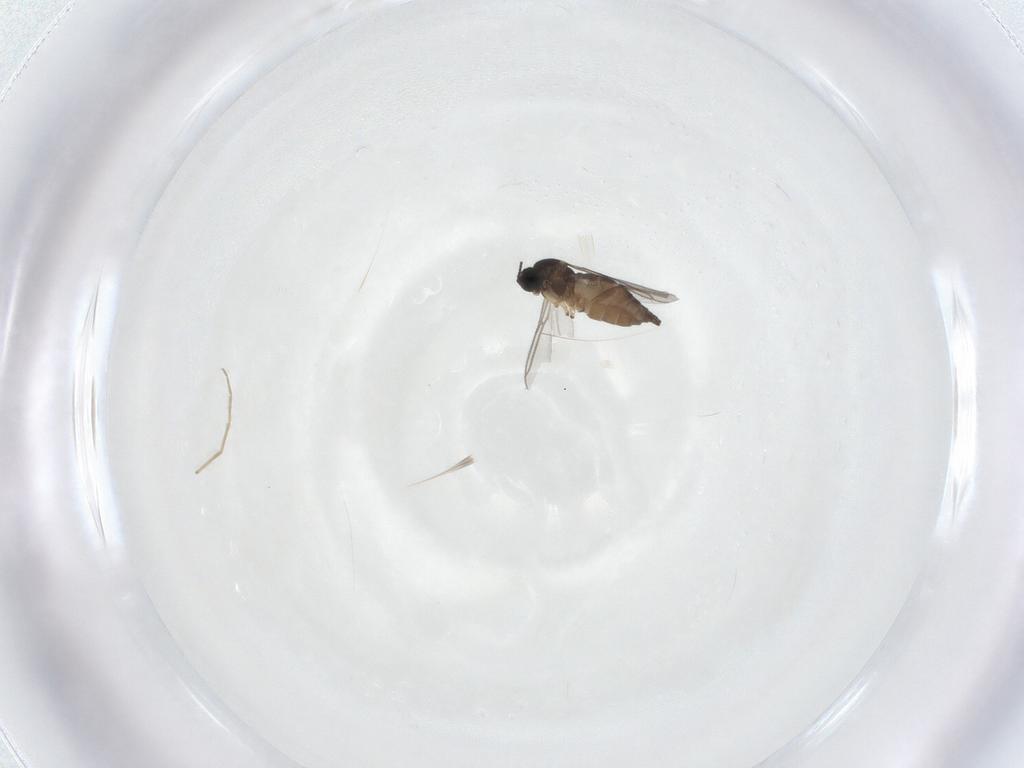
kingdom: Animalia
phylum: Arthropoda
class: Insecta
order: Diptera
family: Sciaridae
